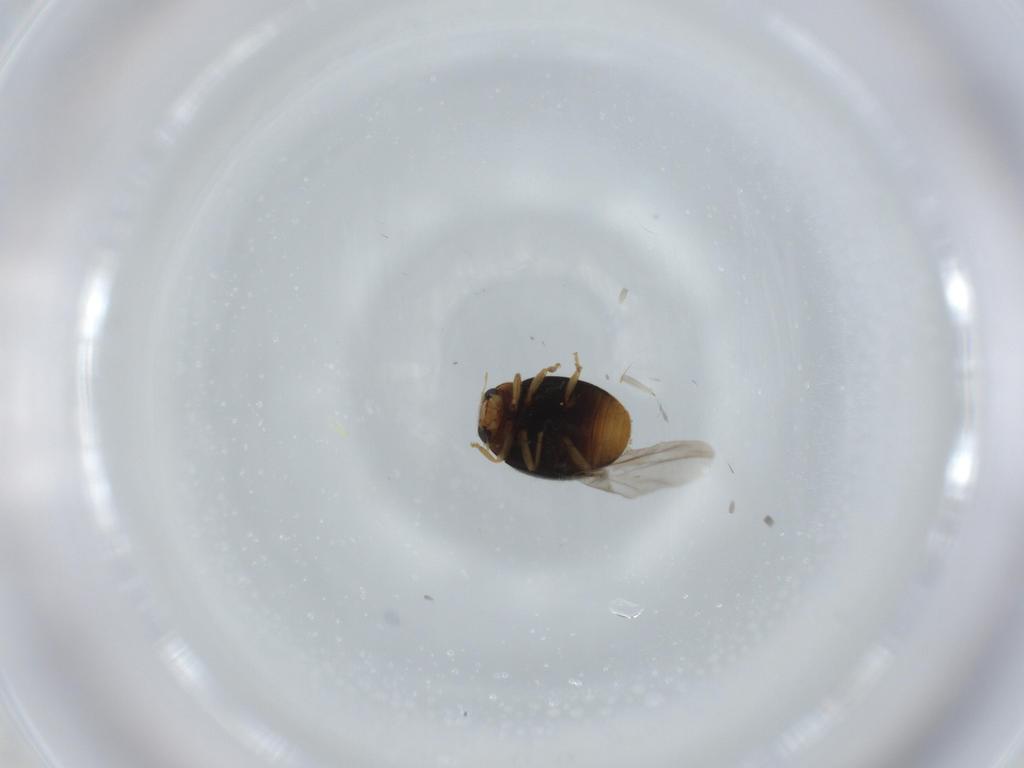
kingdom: Animalia
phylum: Arthropoda
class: Insecta
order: Coleoptera
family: Coccinellidae
